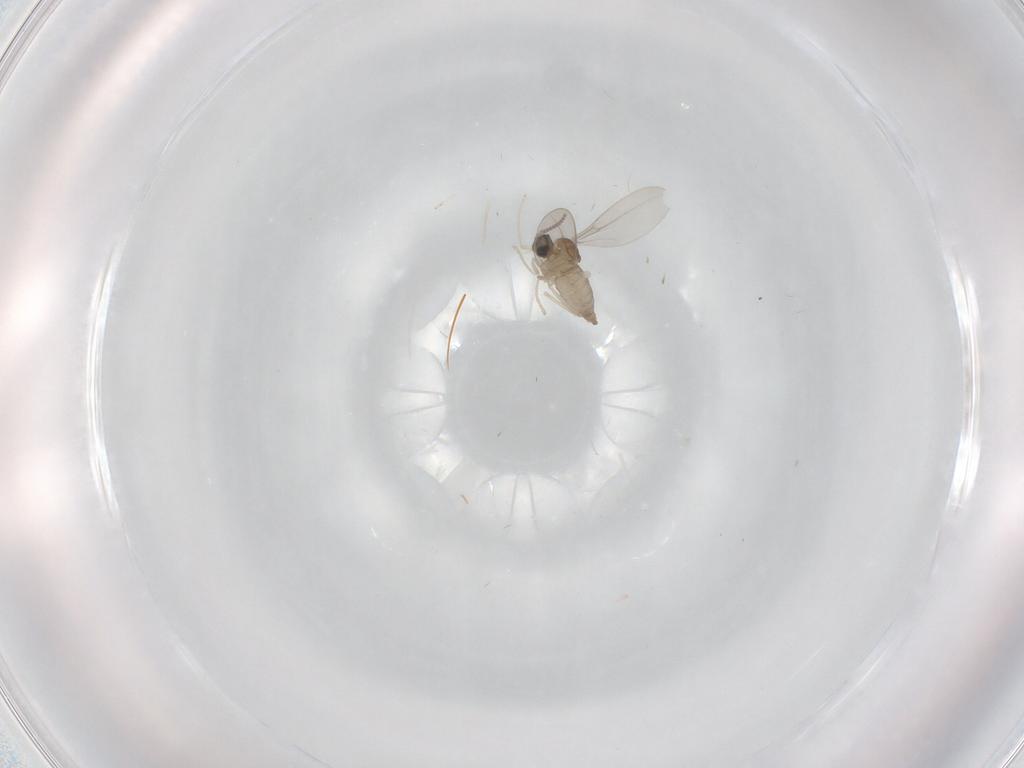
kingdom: Animalia
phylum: Arthropoda
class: Insecta
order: Diptera
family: Cecidomyiidae
